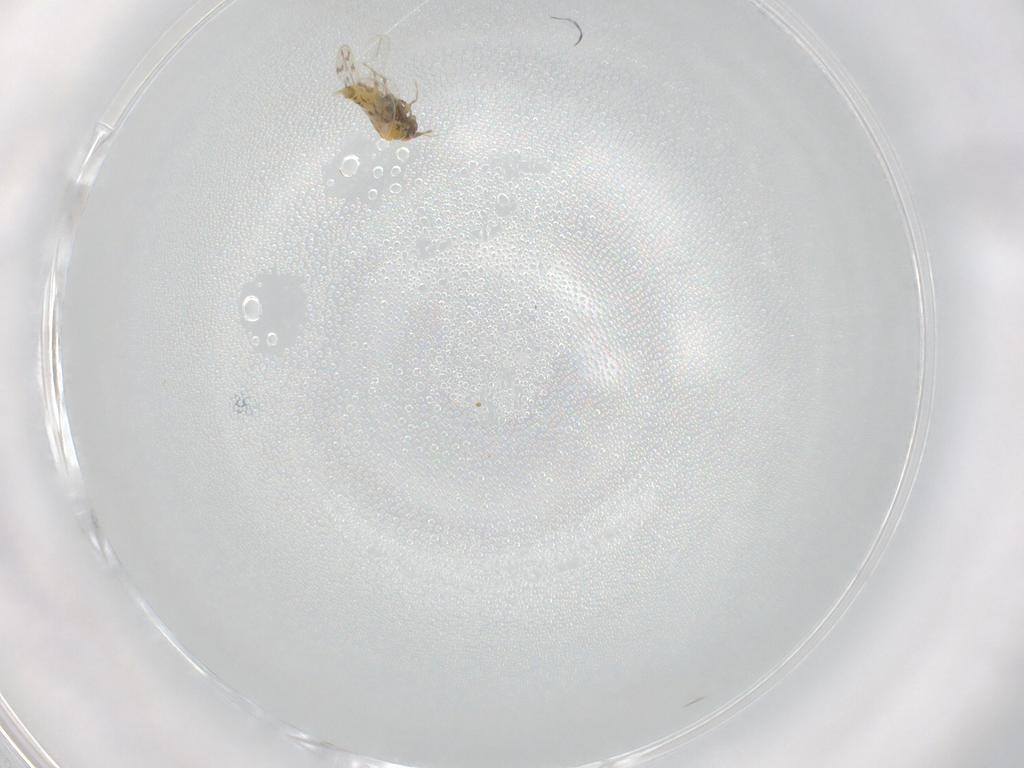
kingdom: Animalia
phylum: Arthropoda
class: Insecta
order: Hemiptera
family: Aleyrodidae
